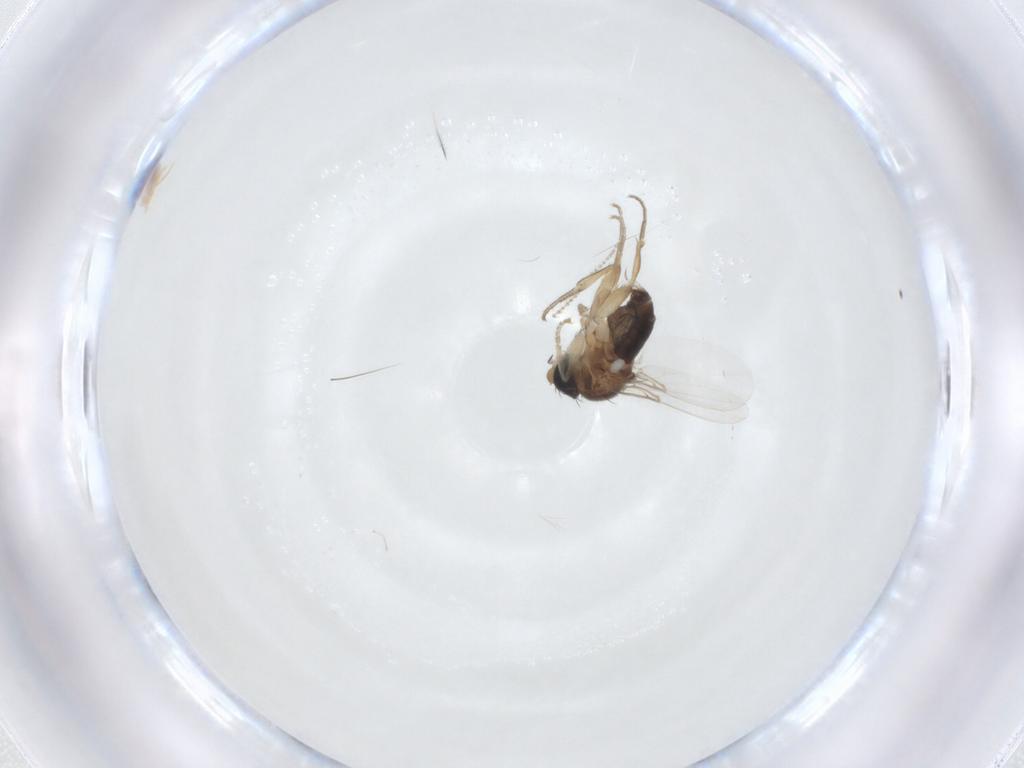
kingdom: Animalia
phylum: Arthropoda
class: Insecta
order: Diptera
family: Cecidomyiidae
